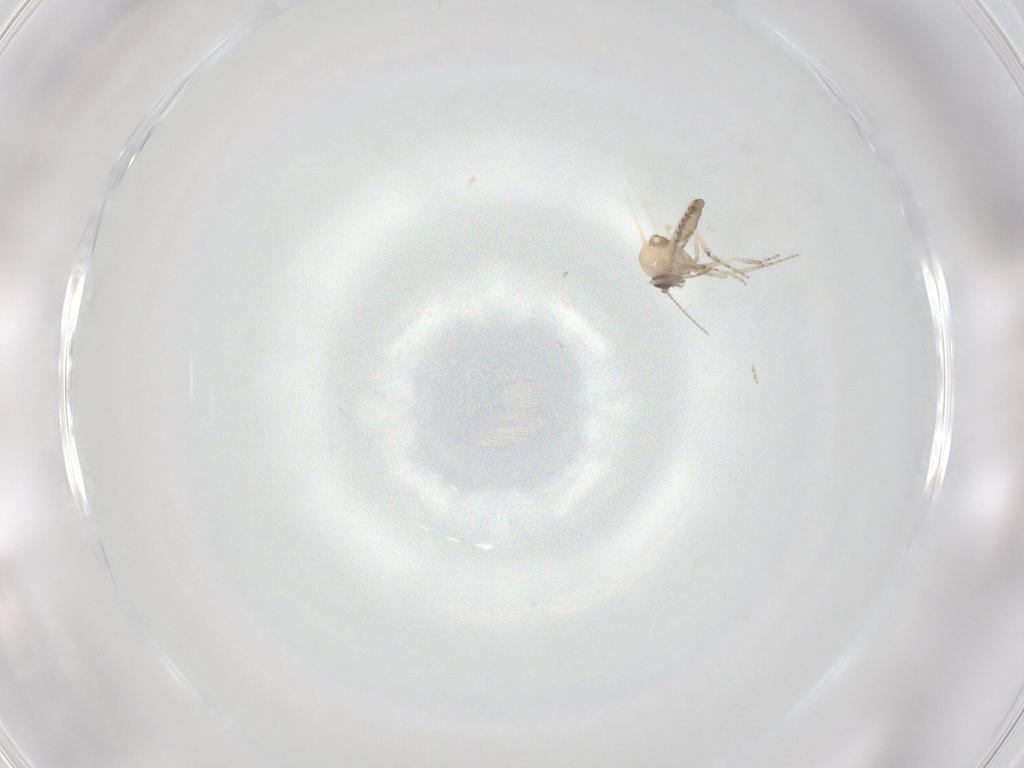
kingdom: Animalia
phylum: Arthropoda
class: Insecta
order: Diptera
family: Ceratopogonidae
